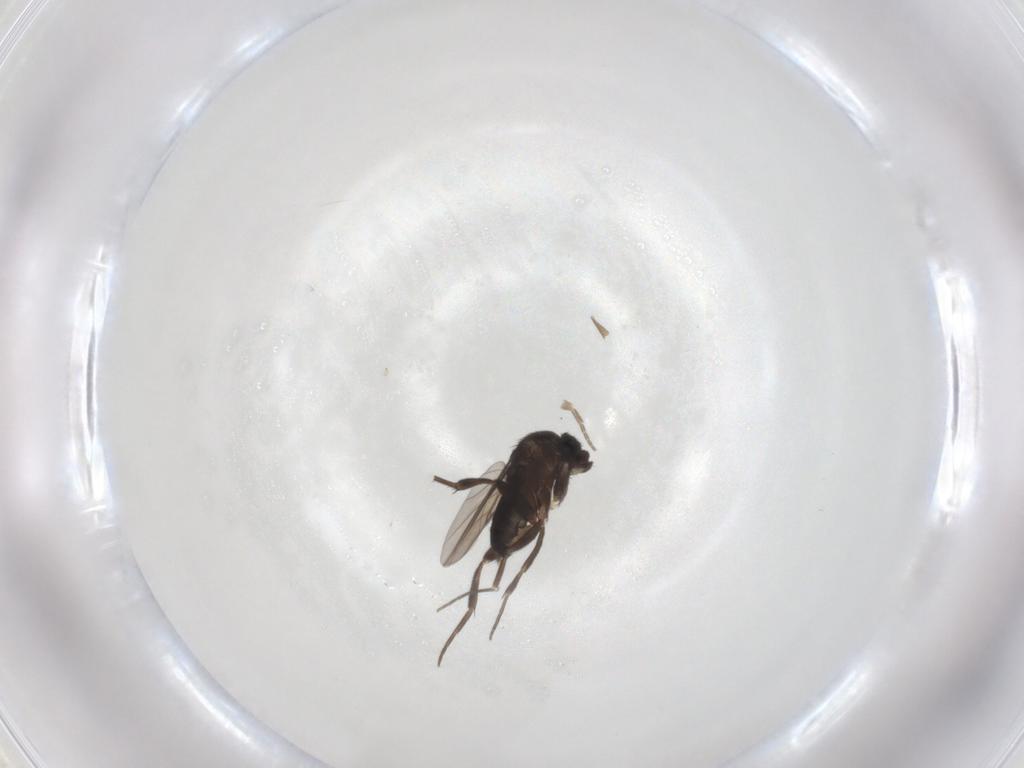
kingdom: Animalia
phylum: Arthropoda
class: Insecta
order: Diptera
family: Phoridae
